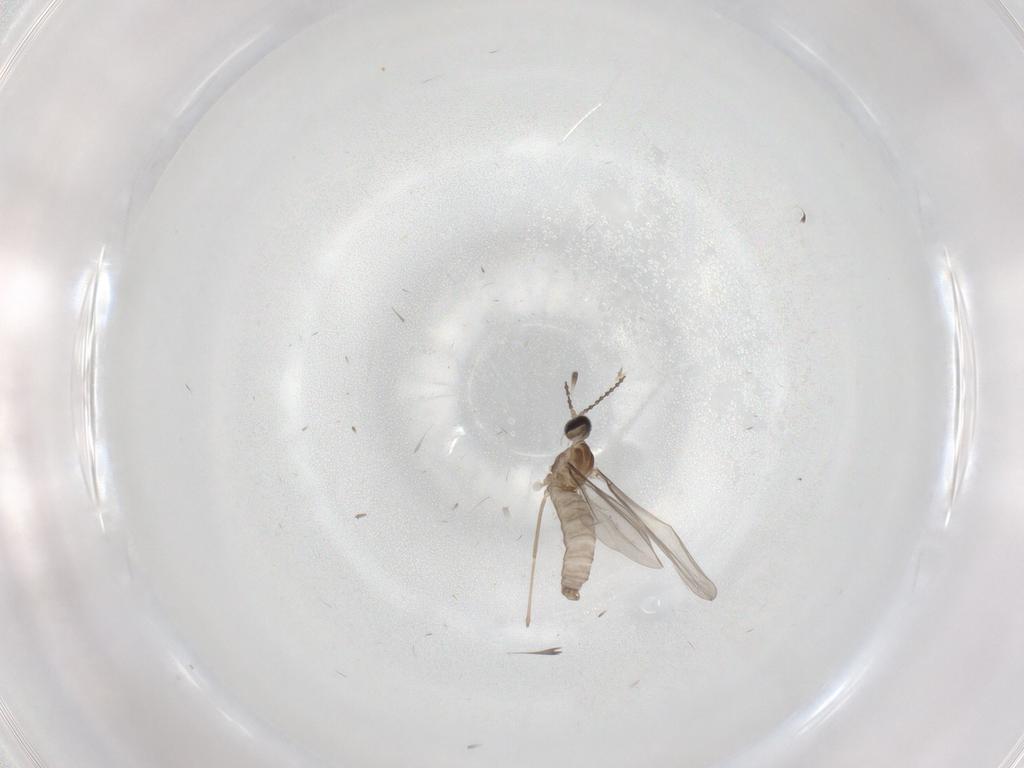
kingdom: Animalia
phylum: Arthropoda
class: Insecta
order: Diptera
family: Cecidomyiidae
